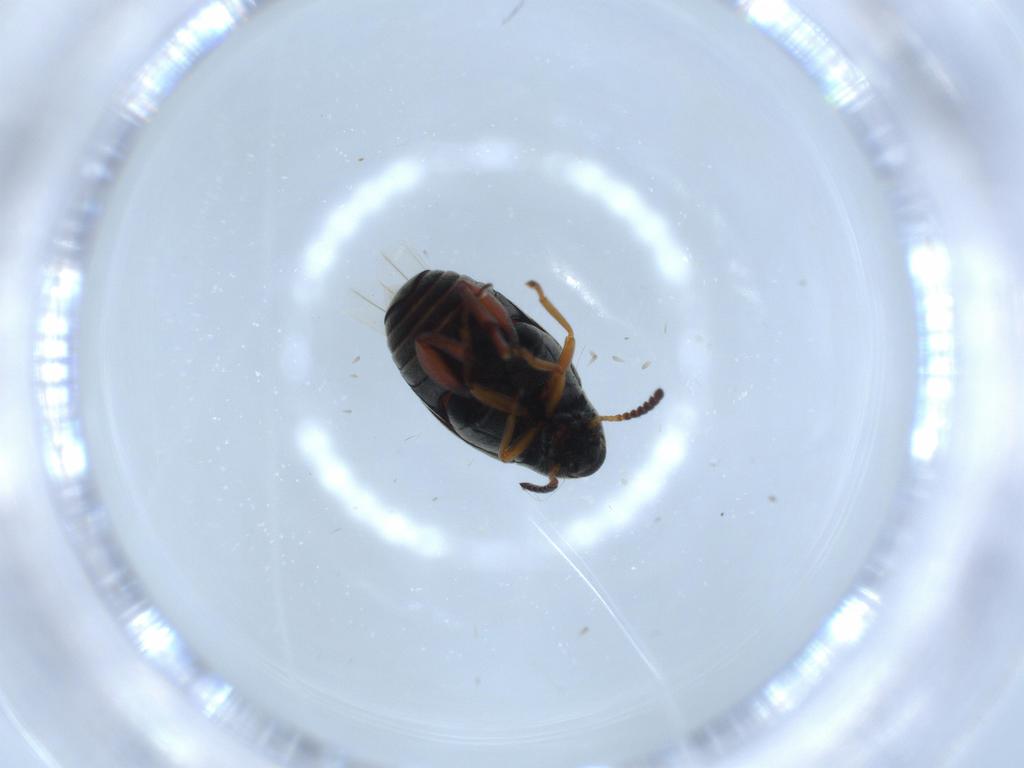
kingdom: Animalia
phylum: Arthropoda
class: Insecta
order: Coleoptera
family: Chrysomelidae
